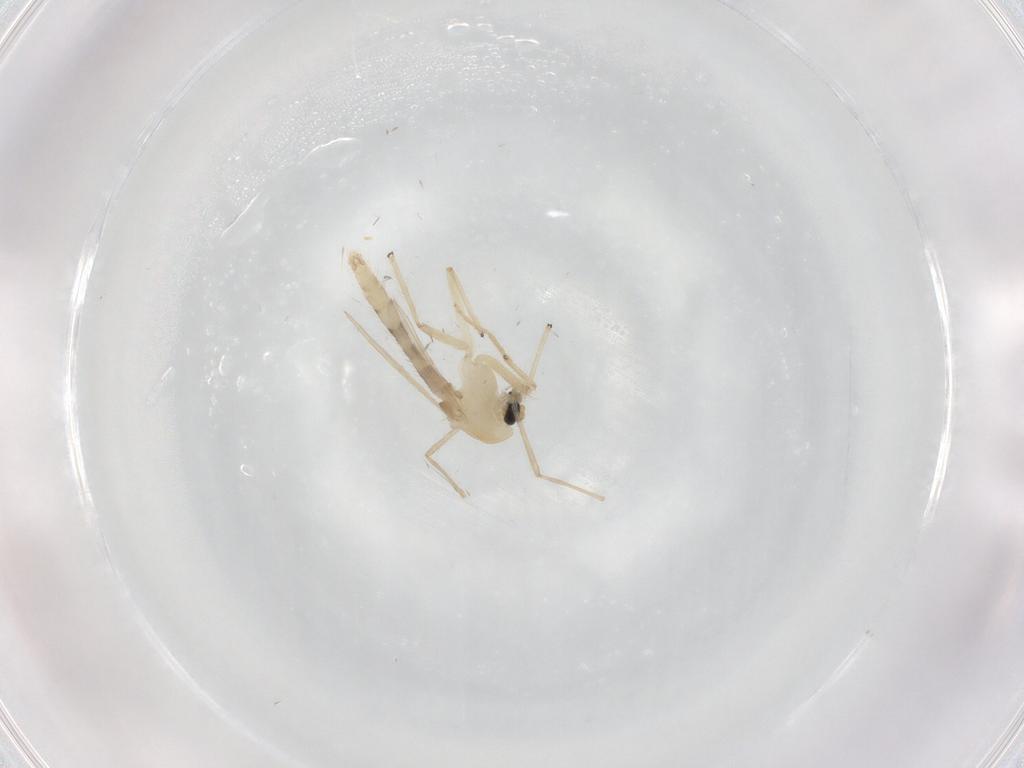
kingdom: Animalia
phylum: Arthropoda
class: Insecta
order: Diptera
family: Chironomidae
